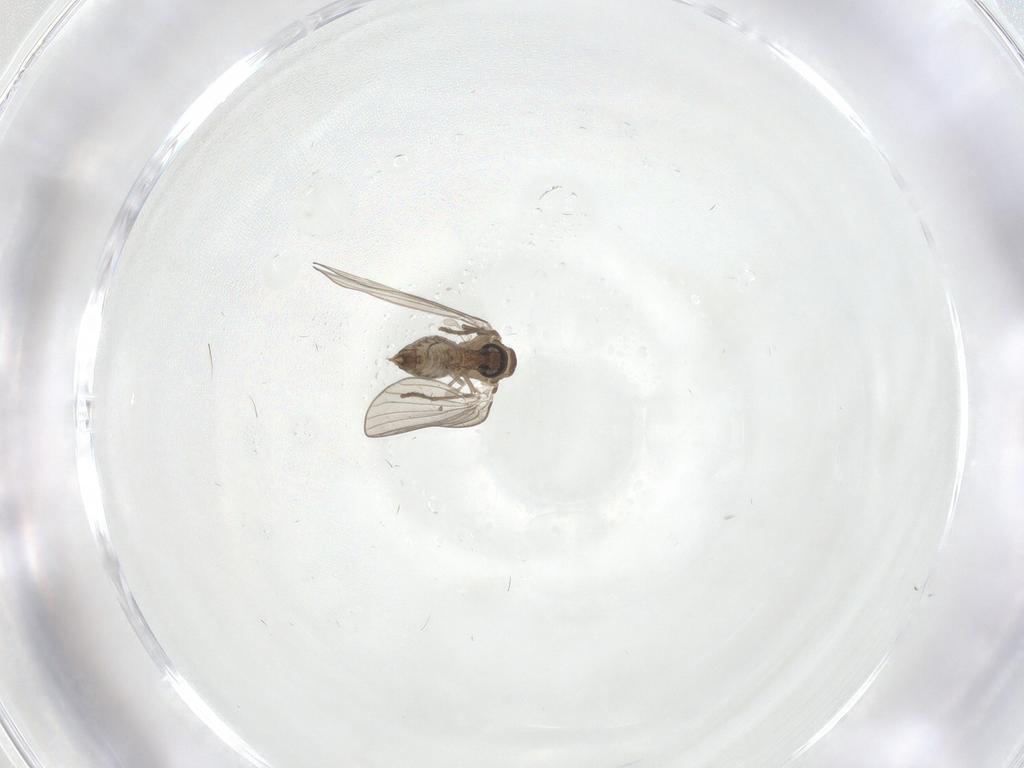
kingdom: Animalia
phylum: Arthropoda
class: Insecta
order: Diptera
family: Psychodidae
